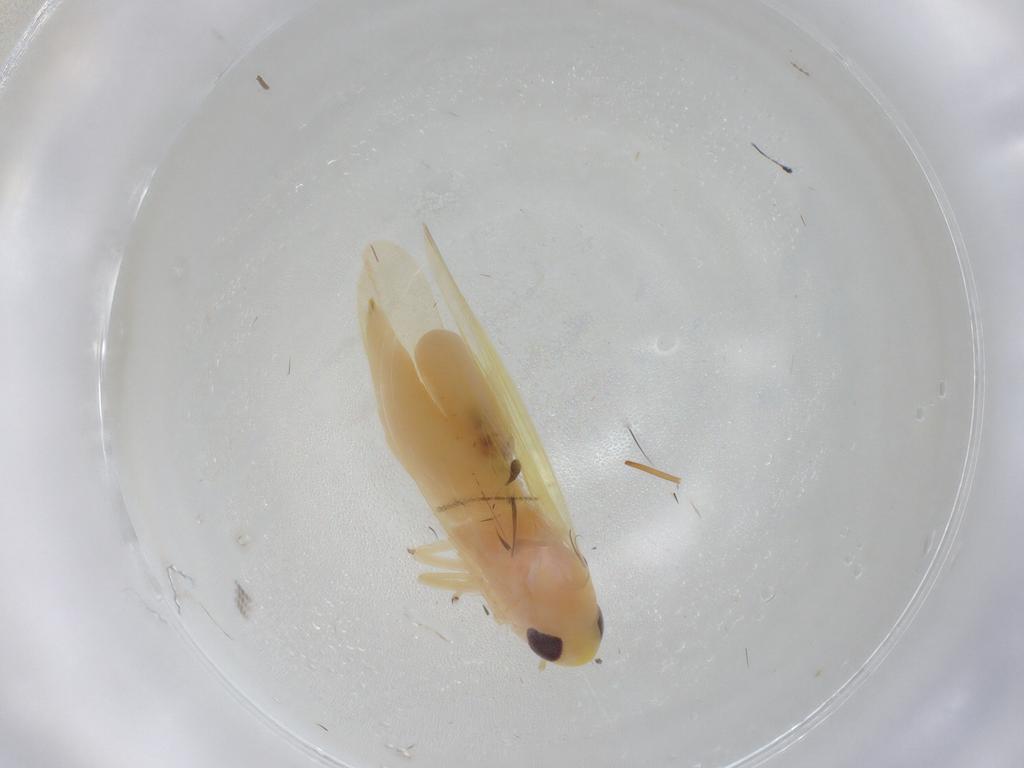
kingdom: Animalia
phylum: Arthropoda
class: Insecta
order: Hemiptera
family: Cicadellidae
